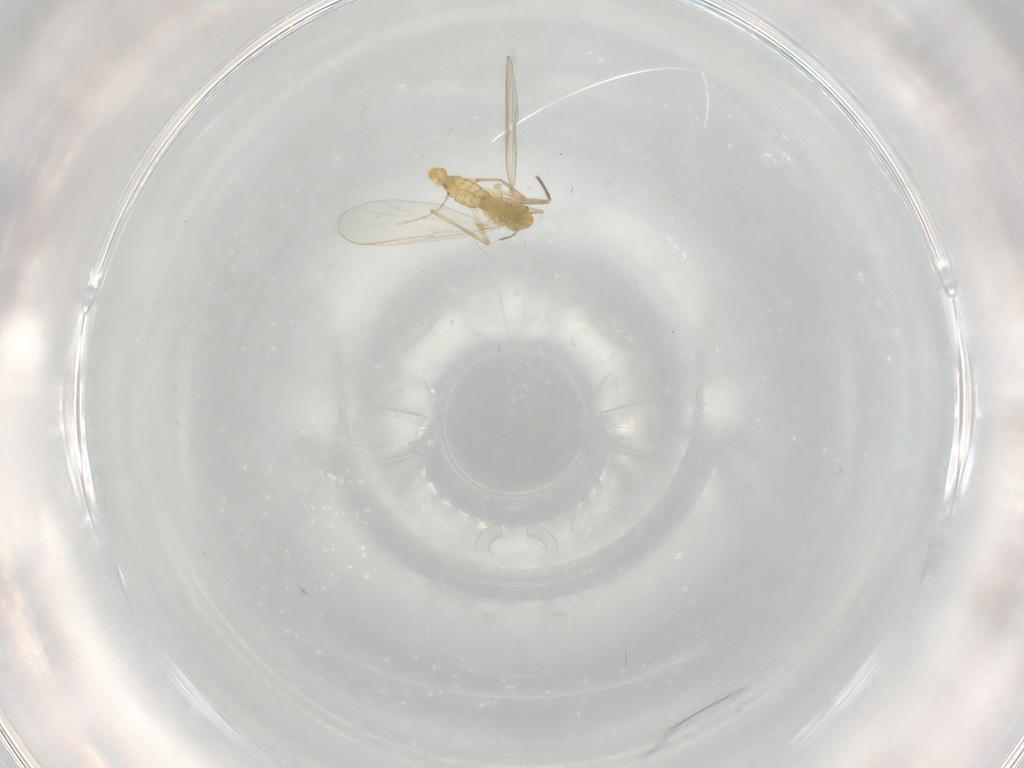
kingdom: Animalia
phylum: Arthropoda
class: Insecta
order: Diptera
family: Chironomidae
